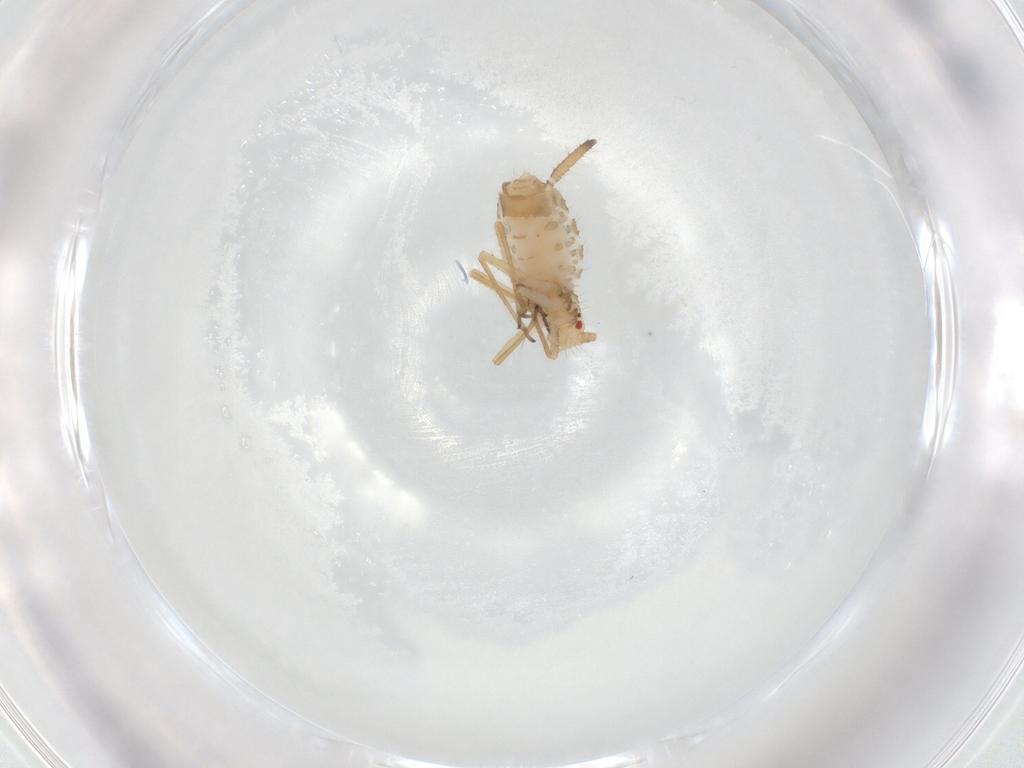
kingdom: Animalia
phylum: Arthropoda
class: Insecta
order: Hemiptera
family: Aphididae
